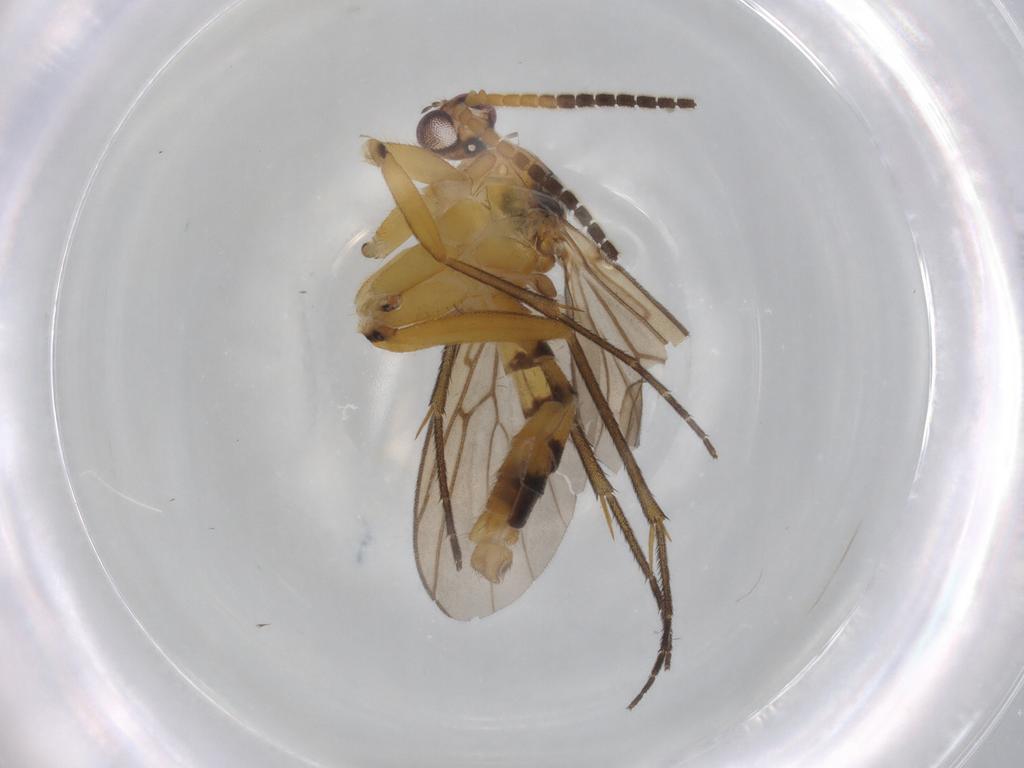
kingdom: Animalia
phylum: Arthropoda
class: Insecta
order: Diptera
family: Mycetophilidae
